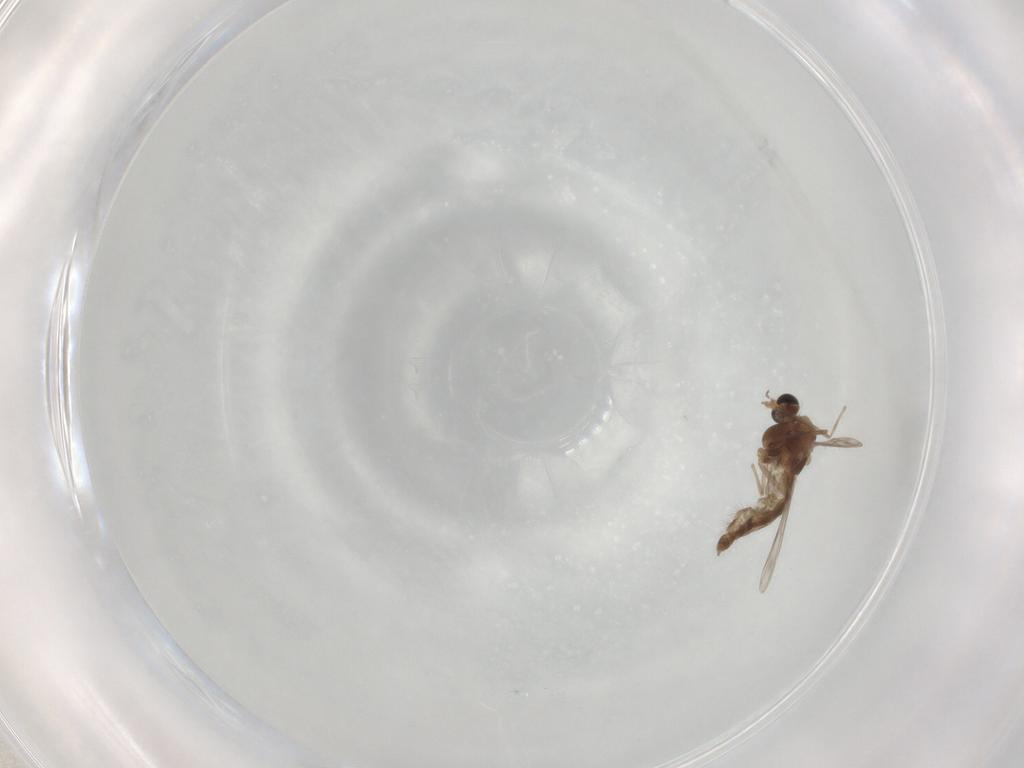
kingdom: Animalia
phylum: Arthropoda
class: Insecta
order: Diptera
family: Chironomidae
